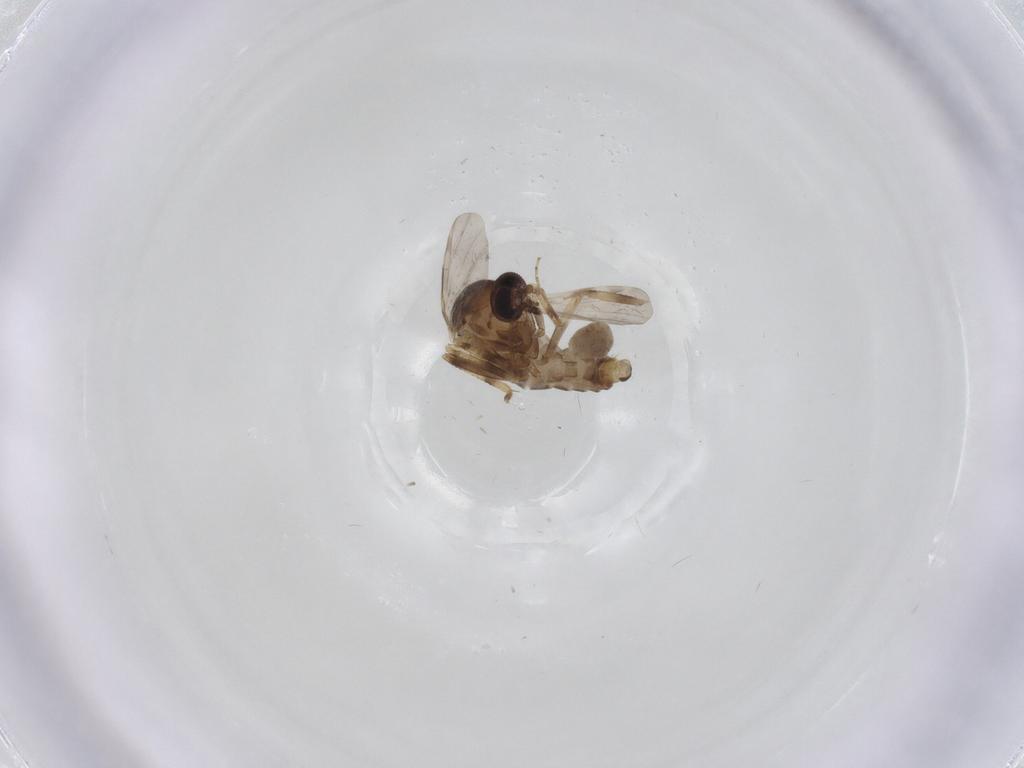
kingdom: Animalia
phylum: Arthropoda
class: Insecta
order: Diptera
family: Ceratopogonidae
